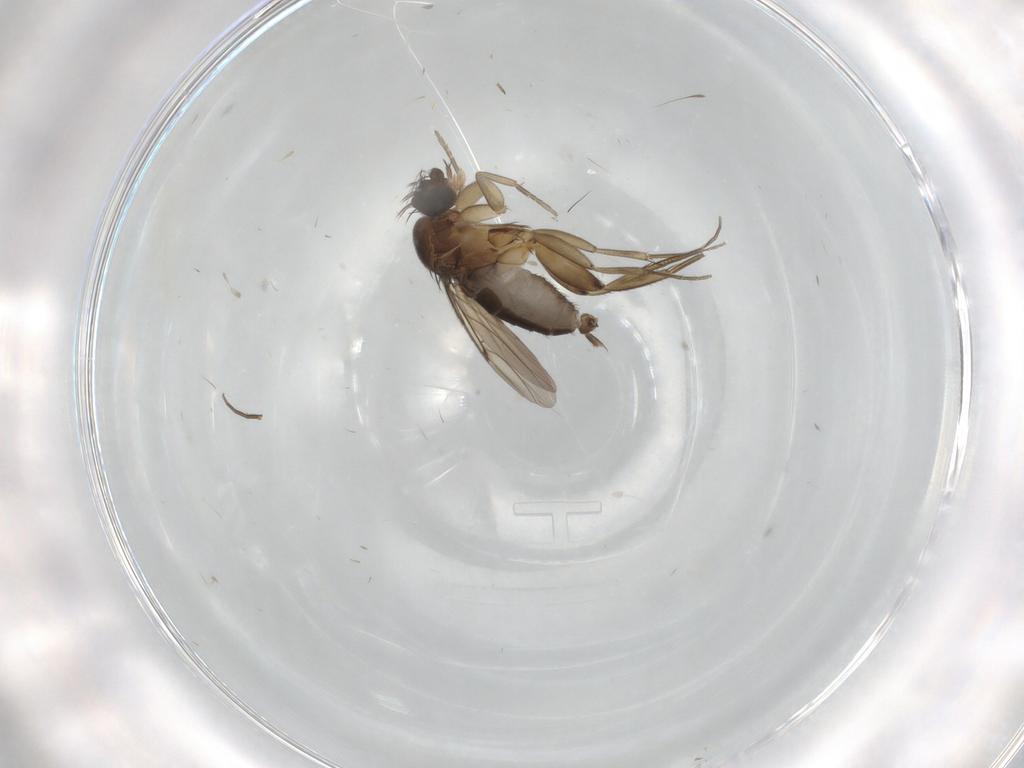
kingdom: Animalia
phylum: Arthropoda
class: Insecta
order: Diptera
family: Phoridae
